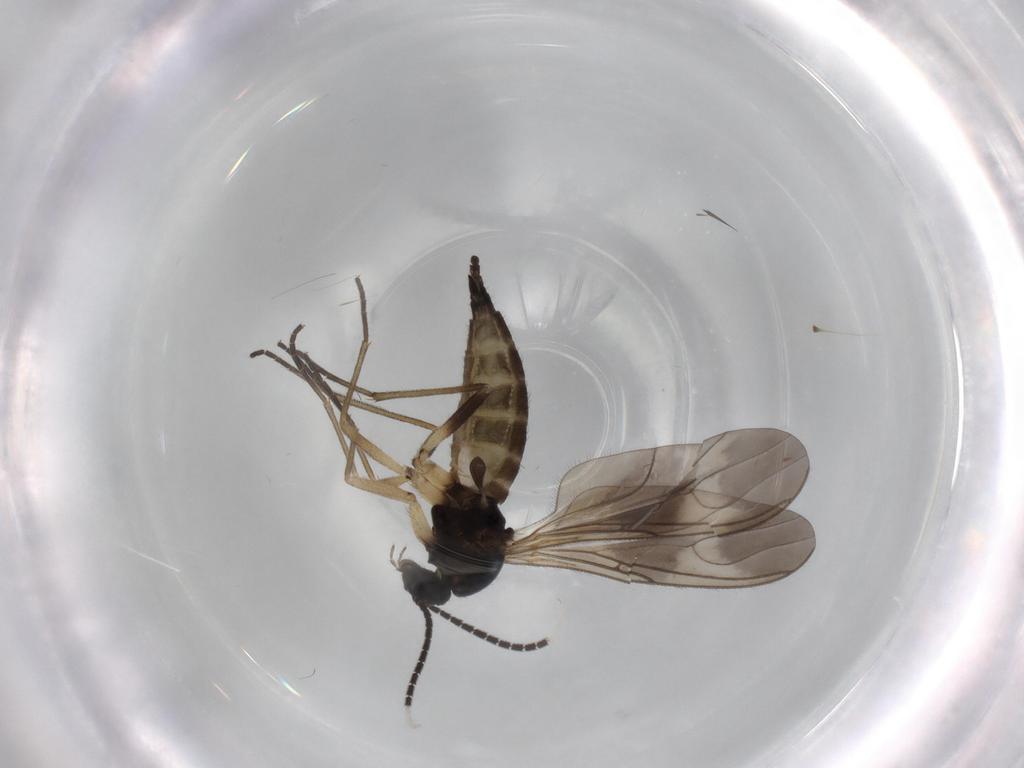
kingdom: Animalia
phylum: Arthropoda
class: Insecta
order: Diptera
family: Sciaridae
